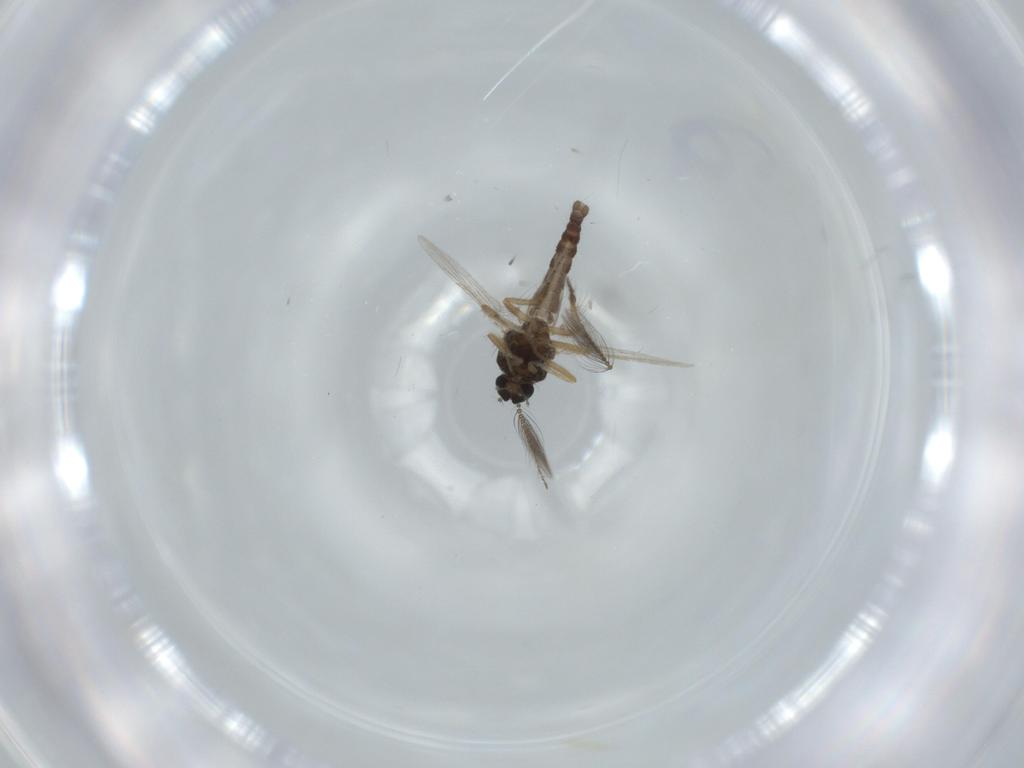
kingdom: Animalia
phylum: Arthropoda
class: Insecta
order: Diptera
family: Ceratopogonidae
